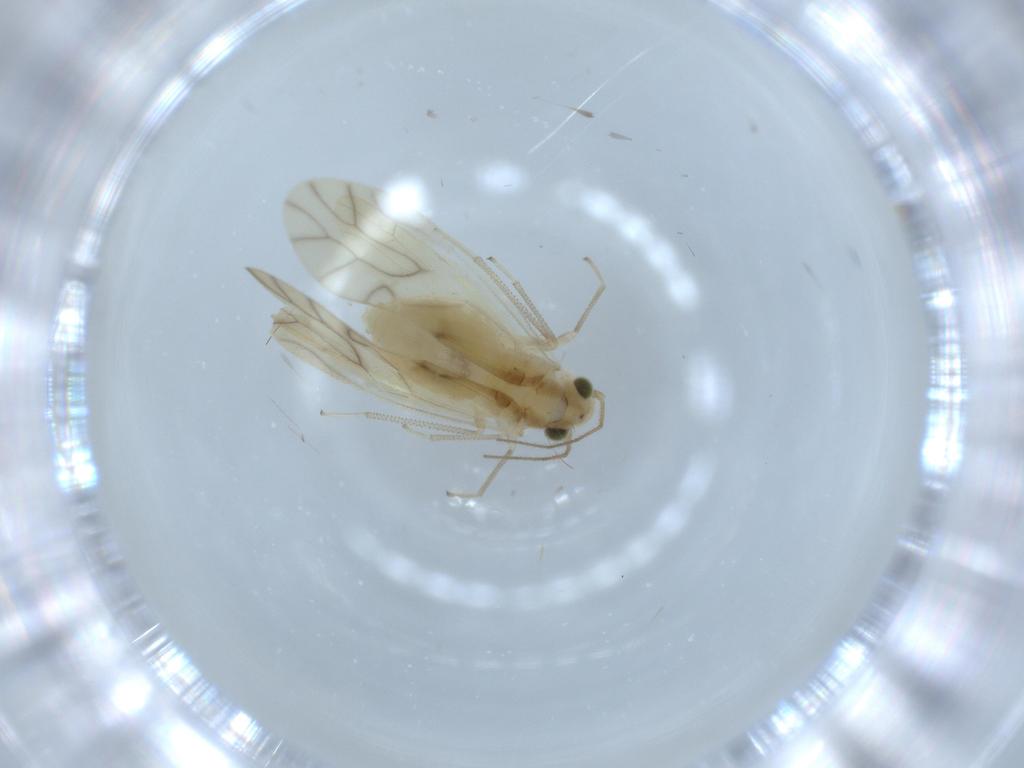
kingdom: Animalia
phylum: Arthropoda
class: Insecta
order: Psocodea
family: Caeciliusidae
